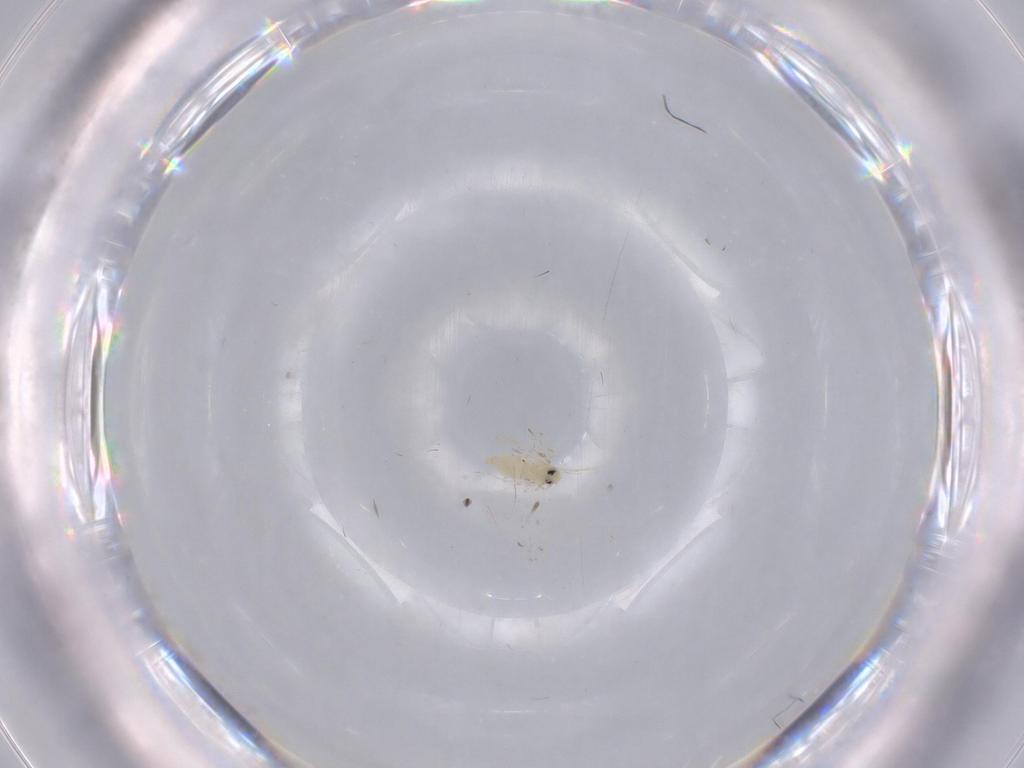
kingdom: Animalia
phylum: Arthropoda
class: Insecta
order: Hemiptera
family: Aleyrodidae
